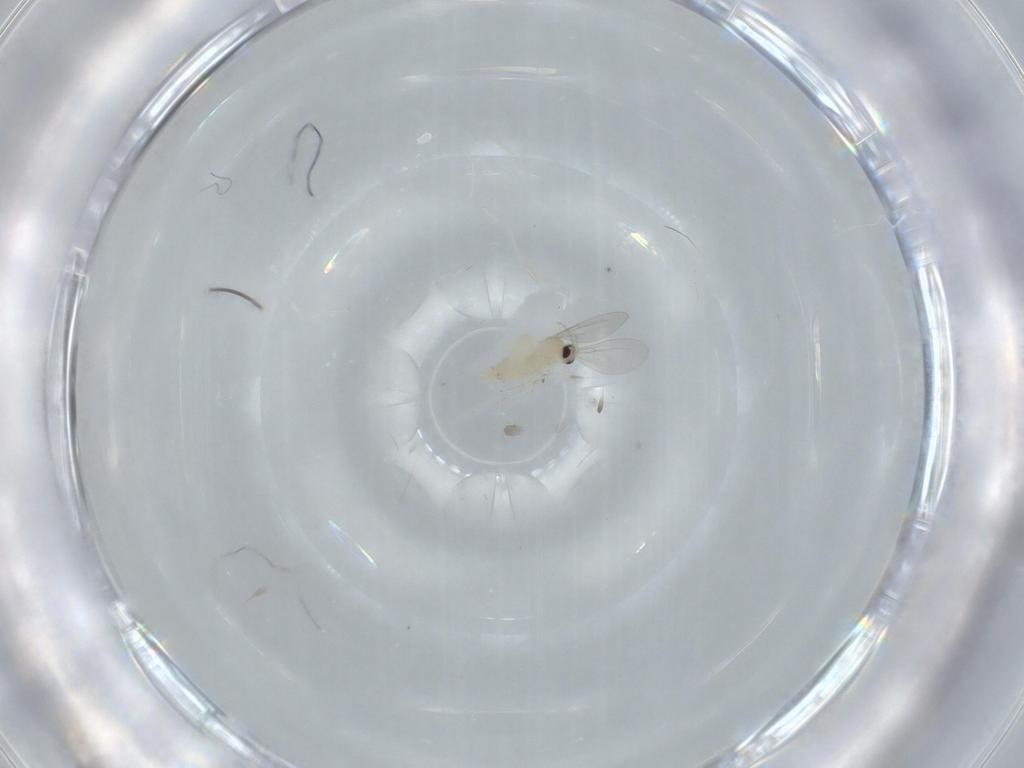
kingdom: Animalia
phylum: Arthropoda
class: Insecta
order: Diptera
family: Cecidomyiidae
